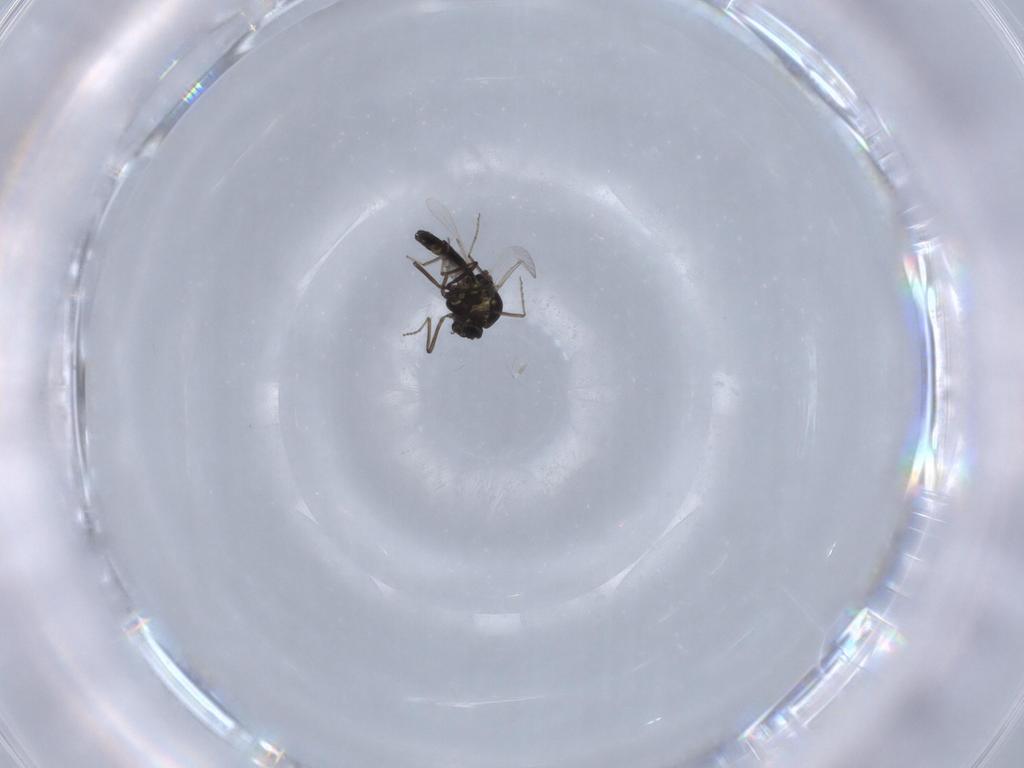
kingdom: Animalia
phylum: Arthropoda
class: Insecta
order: Diptera
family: Ceratopogonidae
